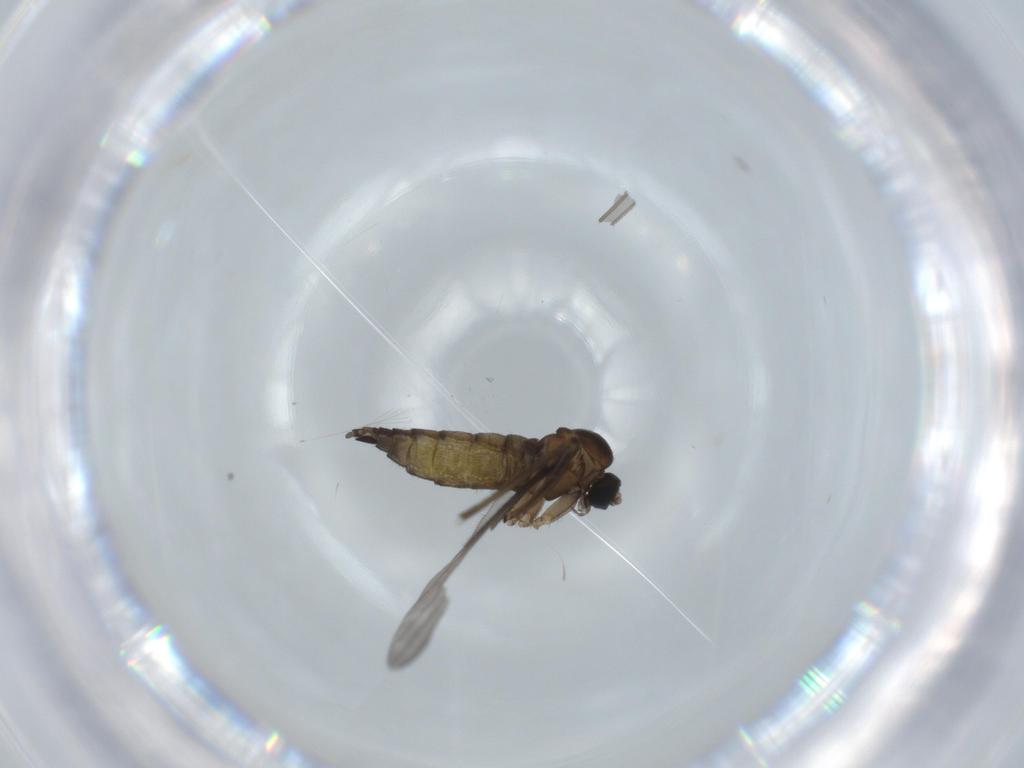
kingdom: Animalia
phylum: Arthropoda
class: Insecta
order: Diptera
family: Sciaridae
